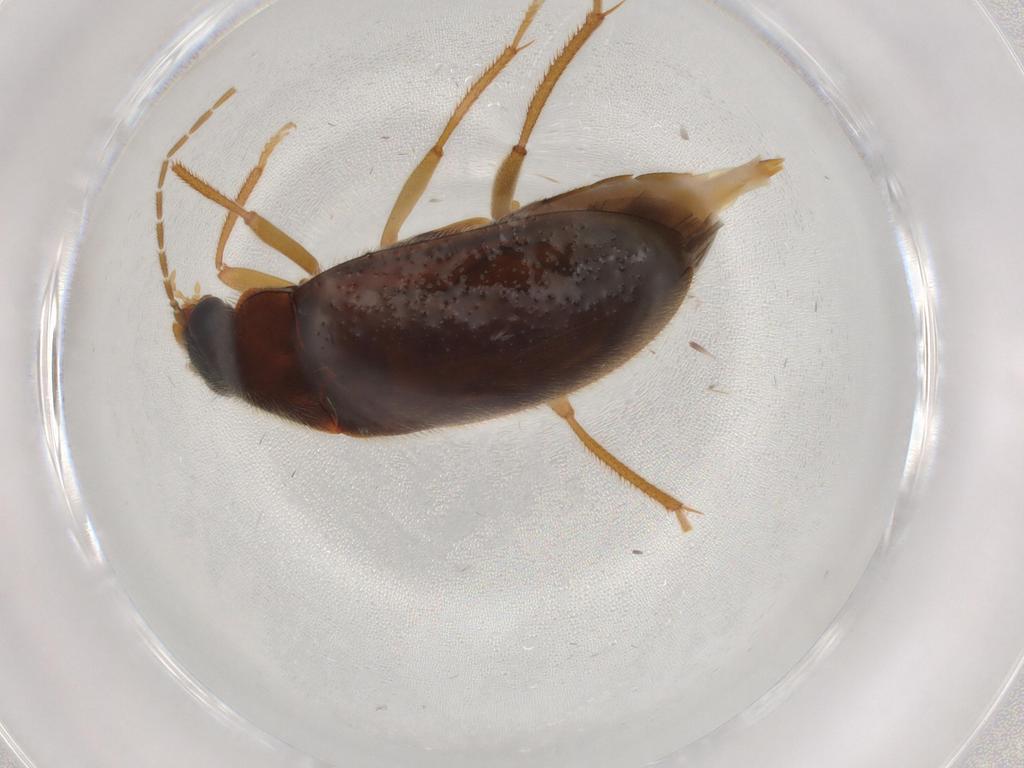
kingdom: Animalia
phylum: Arthropoda
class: Insecta
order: Coleoptera
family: Ptilodactylidae
